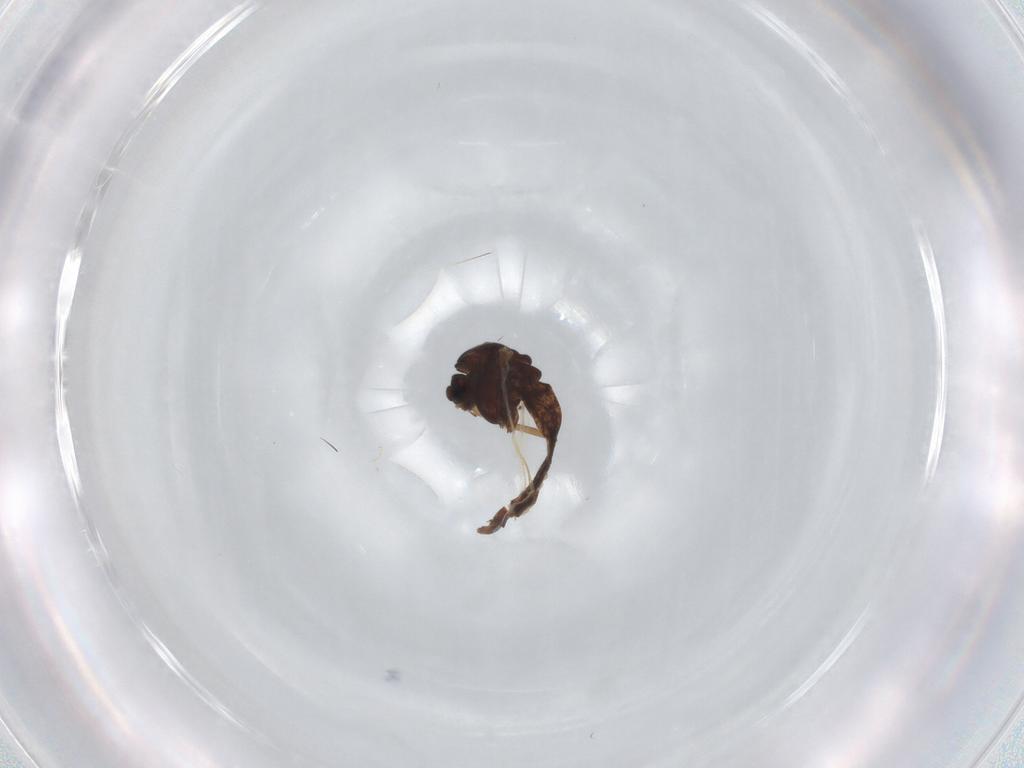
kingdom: Animalia
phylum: Arthropoda
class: Insecta
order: Diptera
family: Chironomidae
